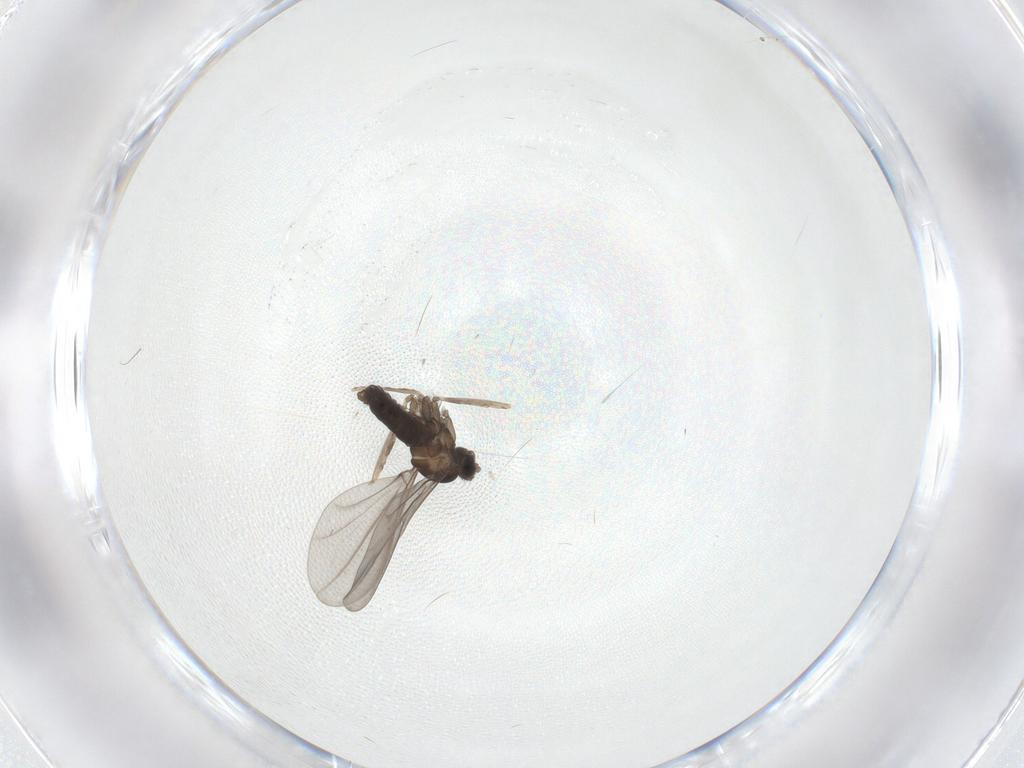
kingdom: Animalia
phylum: Arthropoda
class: Insecta
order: Diptera
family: Cecidomyiidae
